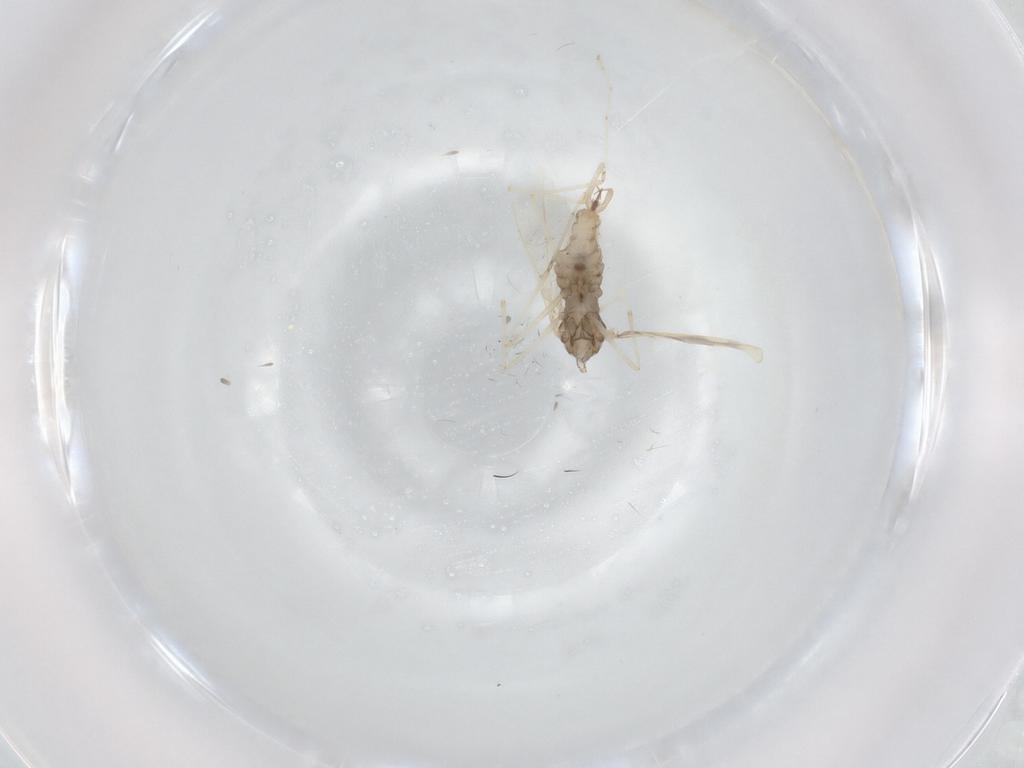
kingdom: Animalia
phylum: Arthropoda
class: Insecta
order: Diptera
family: Cecidomyiidae
